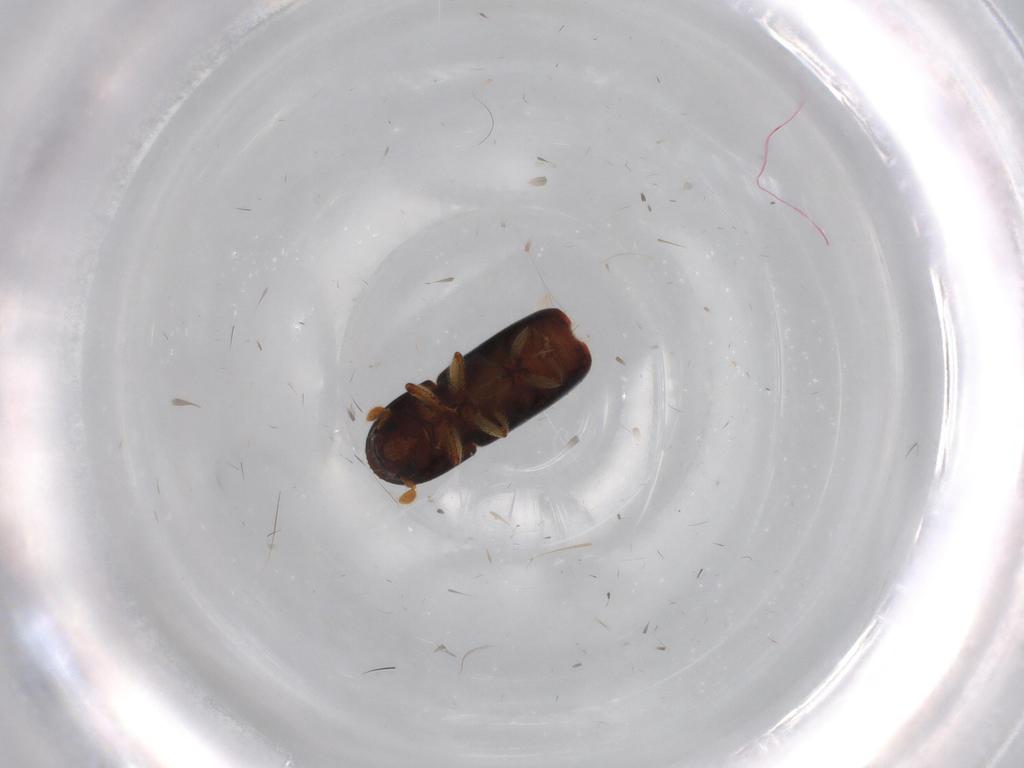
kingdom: Animalia
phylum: Arthropoda
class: Insecta
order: Coleoptera
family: Curculionidae
